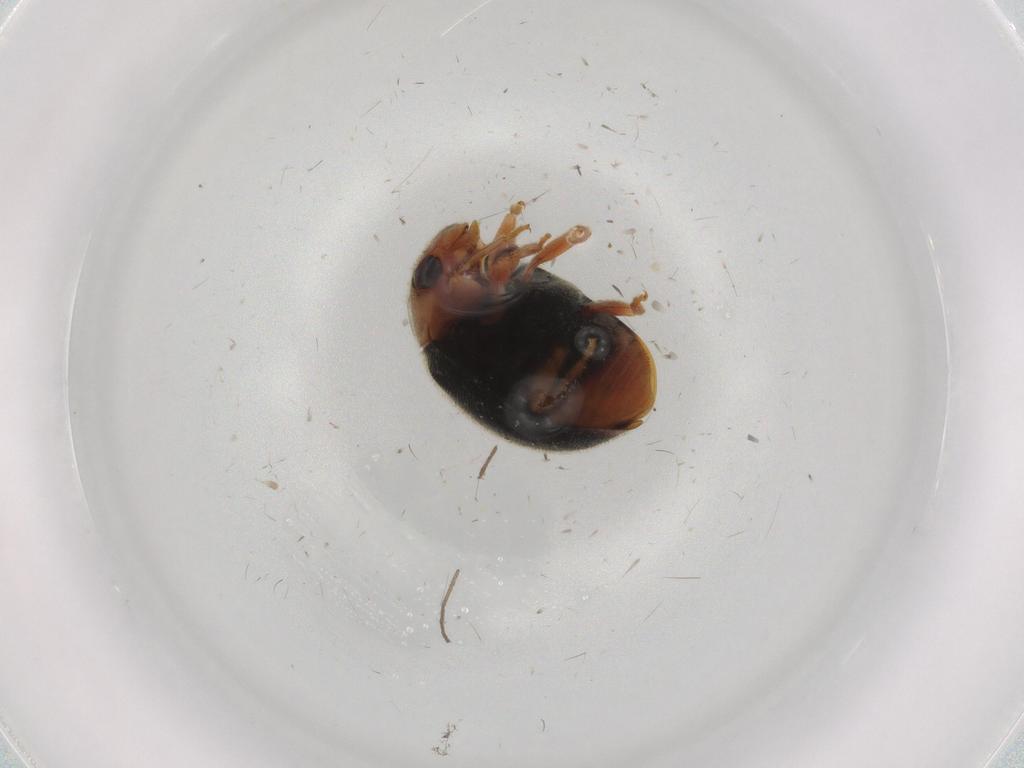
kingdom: Animalia
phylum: Arthropoda
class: Insecta
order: Coleoptera
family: Coccinellidae
